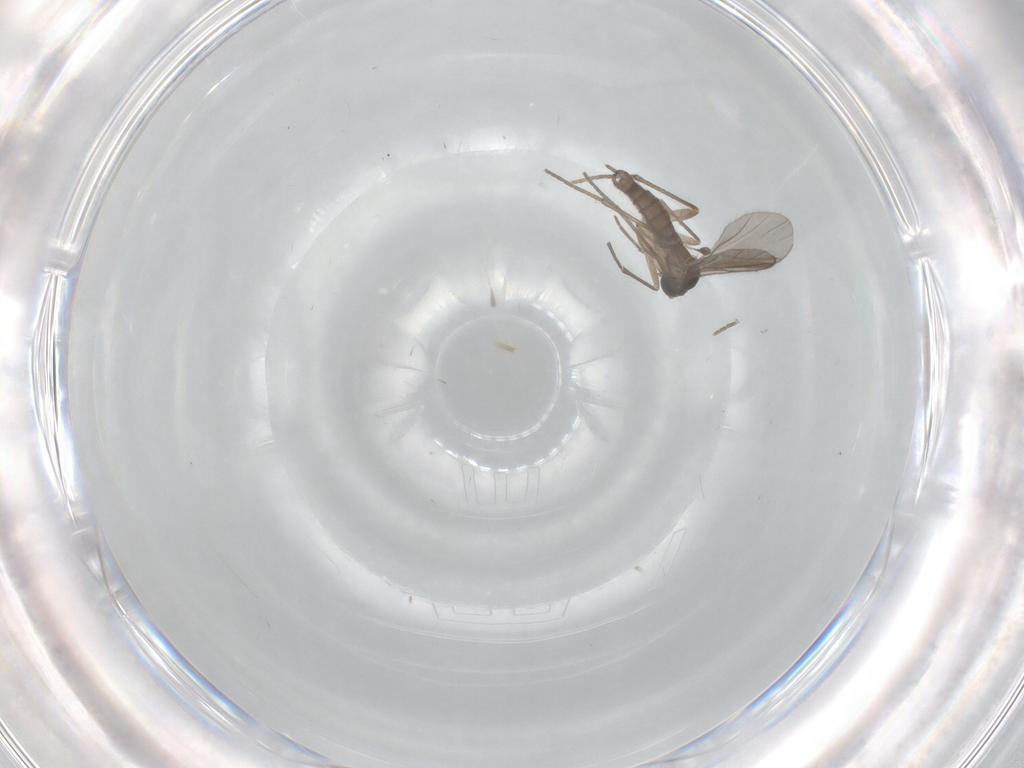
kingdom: Animalia
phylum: Arthropoda
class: Insecta
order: Diptera
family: Sciaridae
